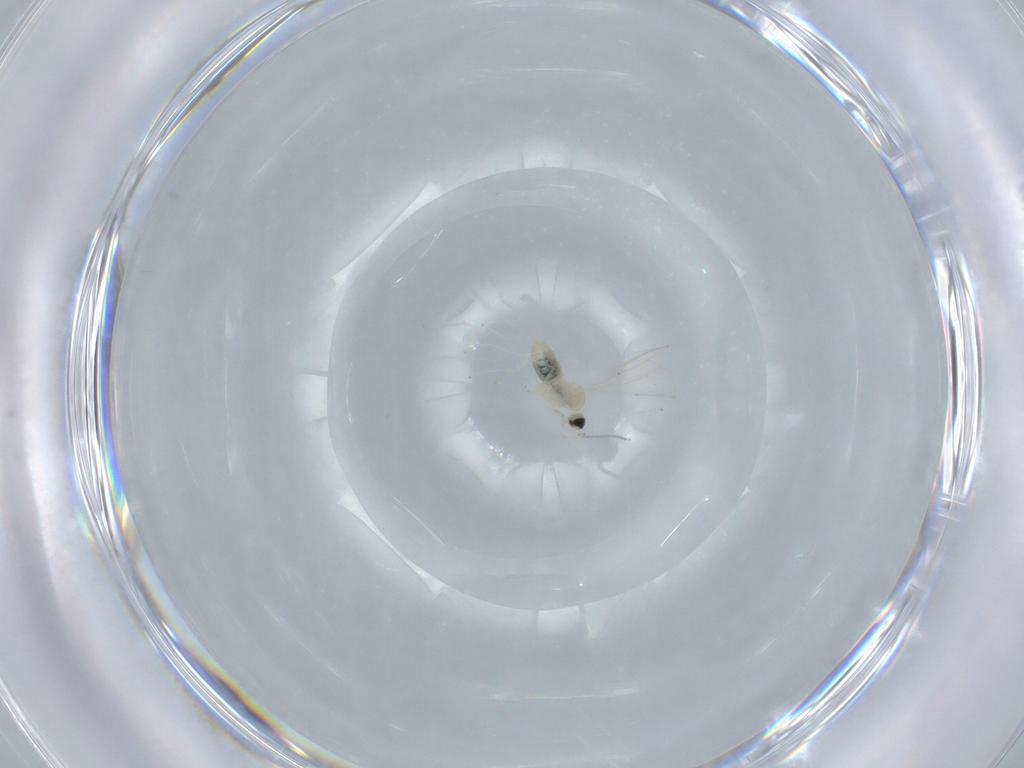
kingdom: Animalia
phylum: Arthropoda
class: Insecta
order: Diptera
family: Cecidomyiidae
